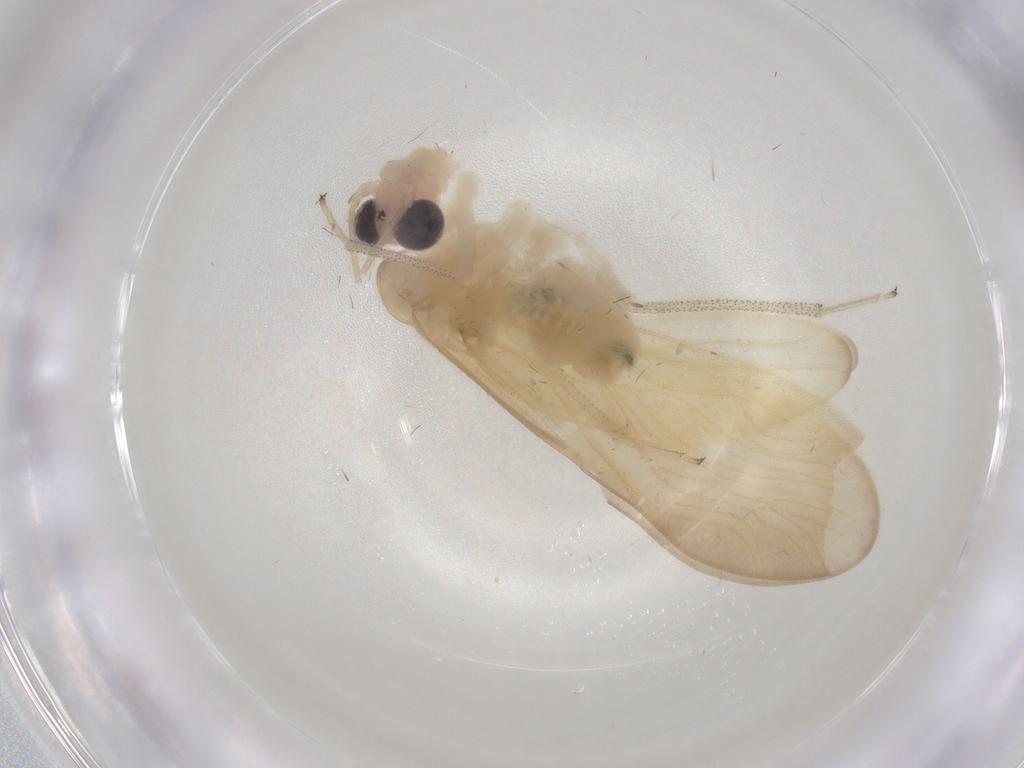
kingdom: Animalia
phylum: Arthropoda
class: Insecta
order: Psocodea
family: Amphipsocidae
